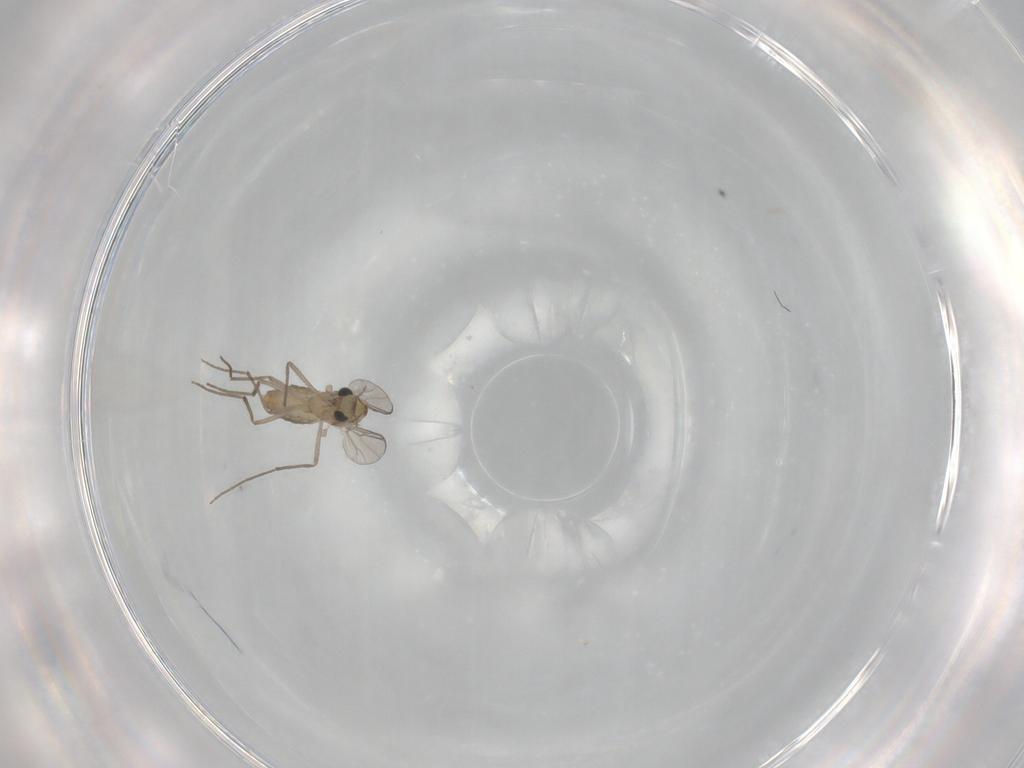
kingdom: Animalia
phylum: Arthropoda
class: Insecta
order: Diptera
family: Chironomidae
